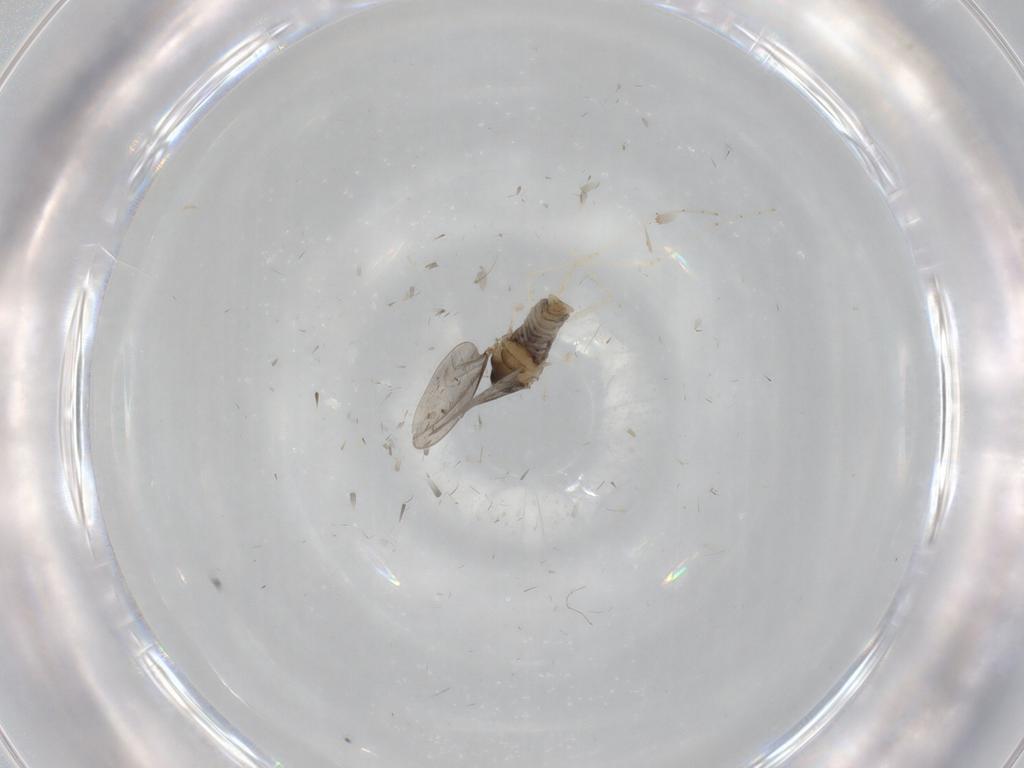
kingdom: Animalia
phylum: Arthropoda
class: Insecta
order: Diptera
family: Cecidomyiidae
